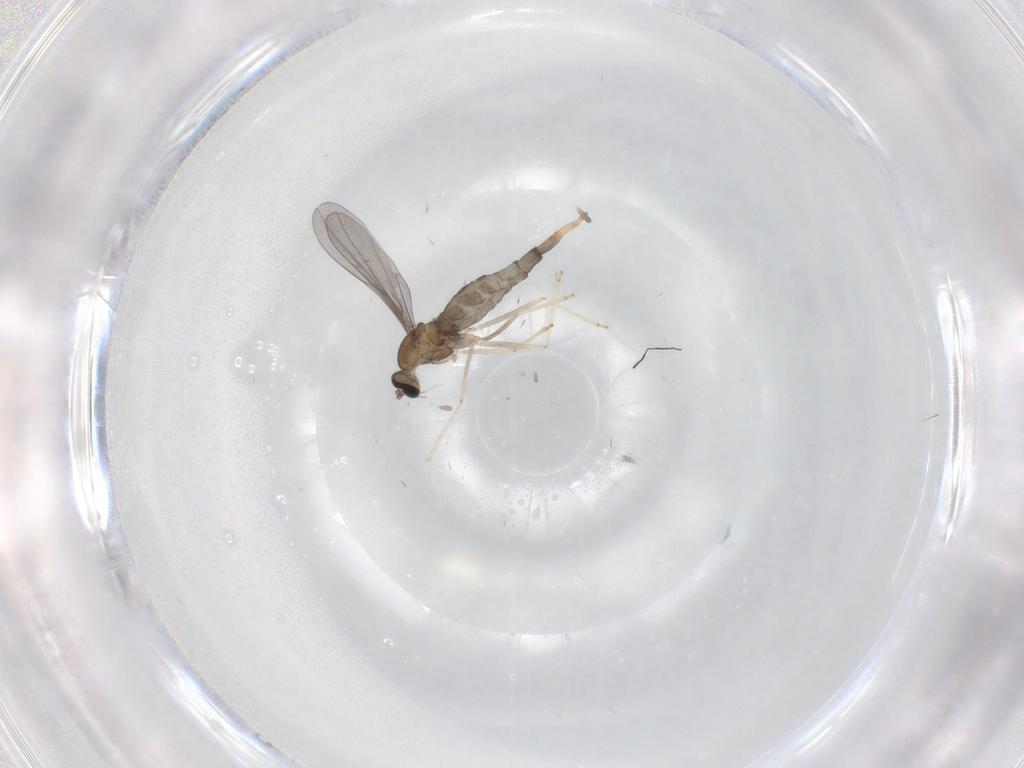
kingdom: Animalia
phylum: Arthropoda
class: Insecta
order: Diptera
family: Cecidomyiidae
